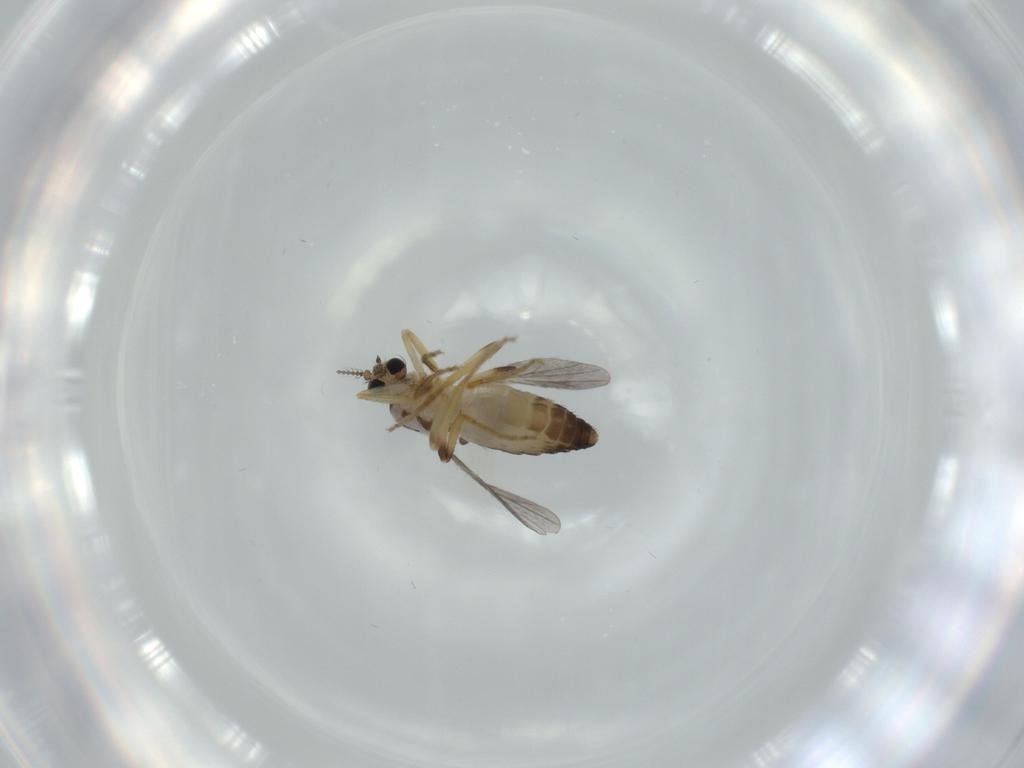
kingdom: Animalia
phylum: Arthropoda
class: Insecta
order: Diptera
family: Ceratopogonidae
